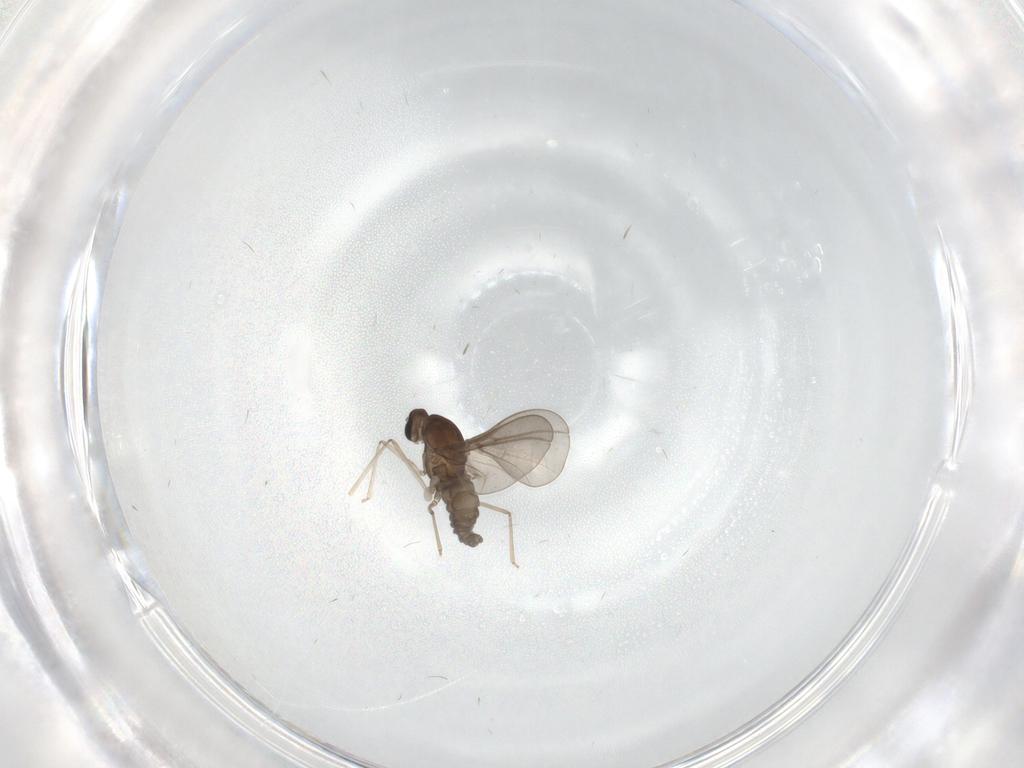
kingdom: Animalia
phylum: Arthropoda
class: Insecta
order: Diptera
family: Cecidomyiidae
